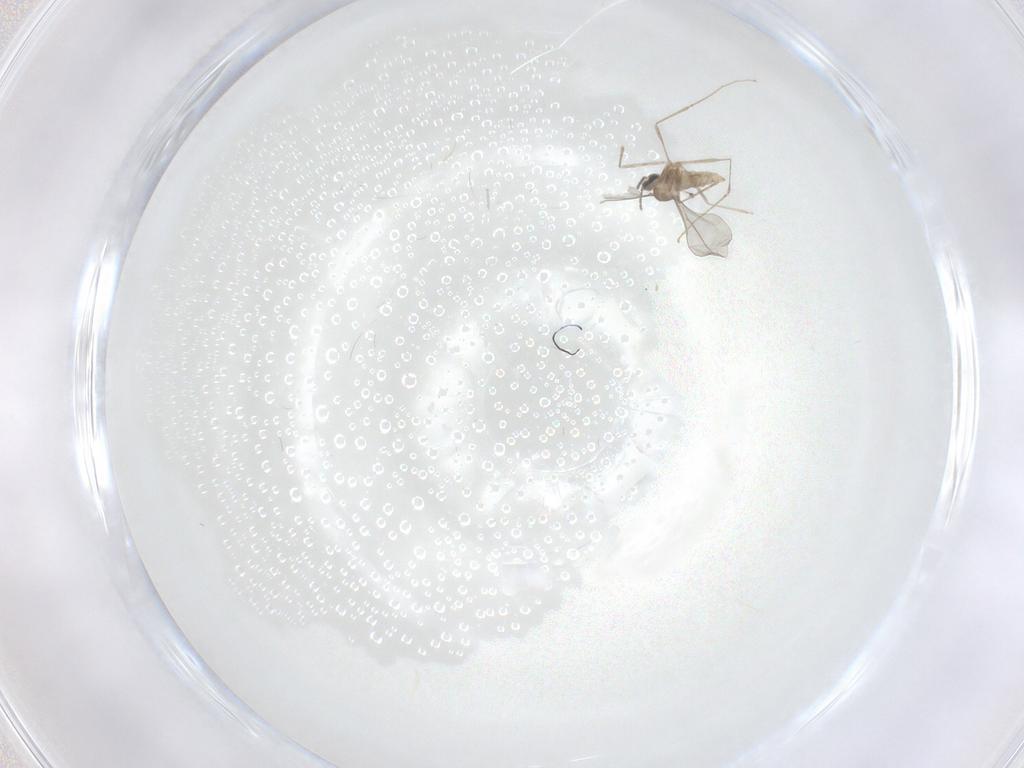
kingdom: Animalia
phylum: Arthropoda
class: Insecta
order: Diptera
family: Cecidomyiidae
